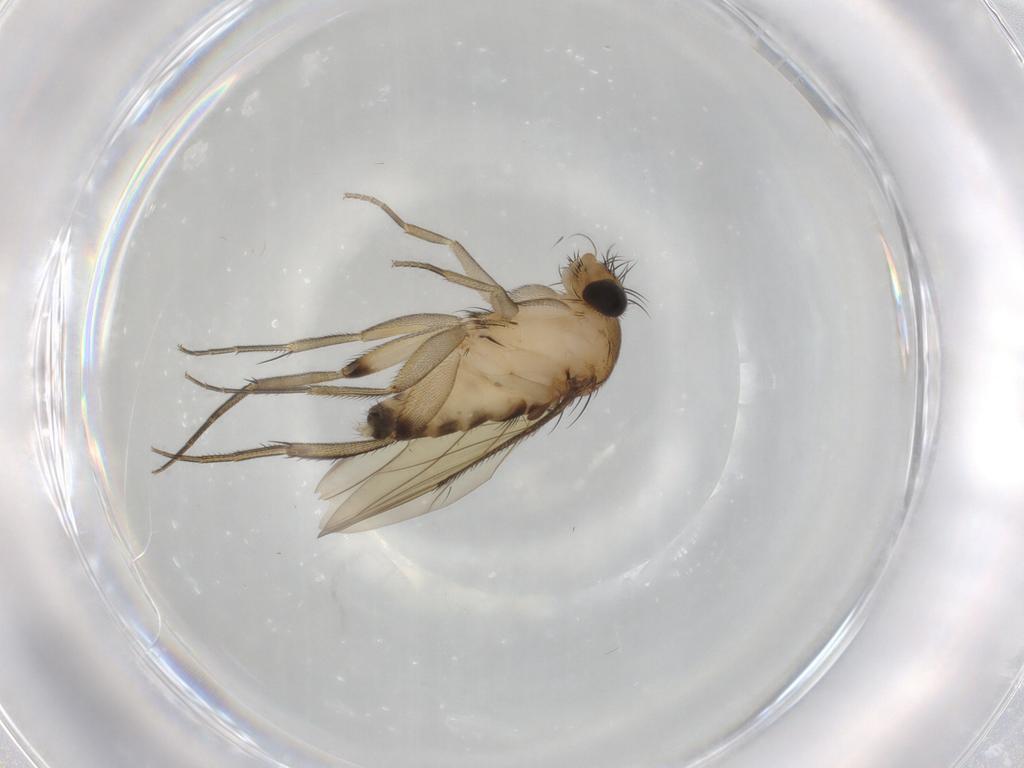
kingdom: Animalia
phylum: Arthropoda
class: Insecta
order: Diptera
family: Phoridae
